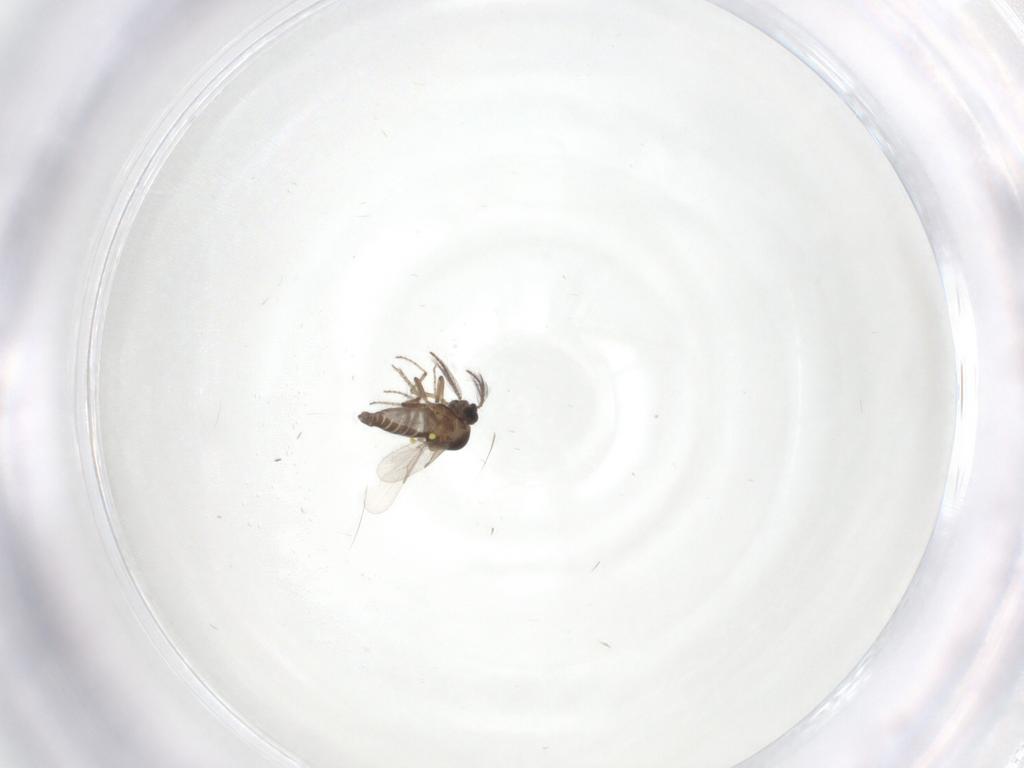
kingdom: Animalia
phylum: Arthropoda
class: Insecta
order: Diptera
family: Ceratopogonidae
